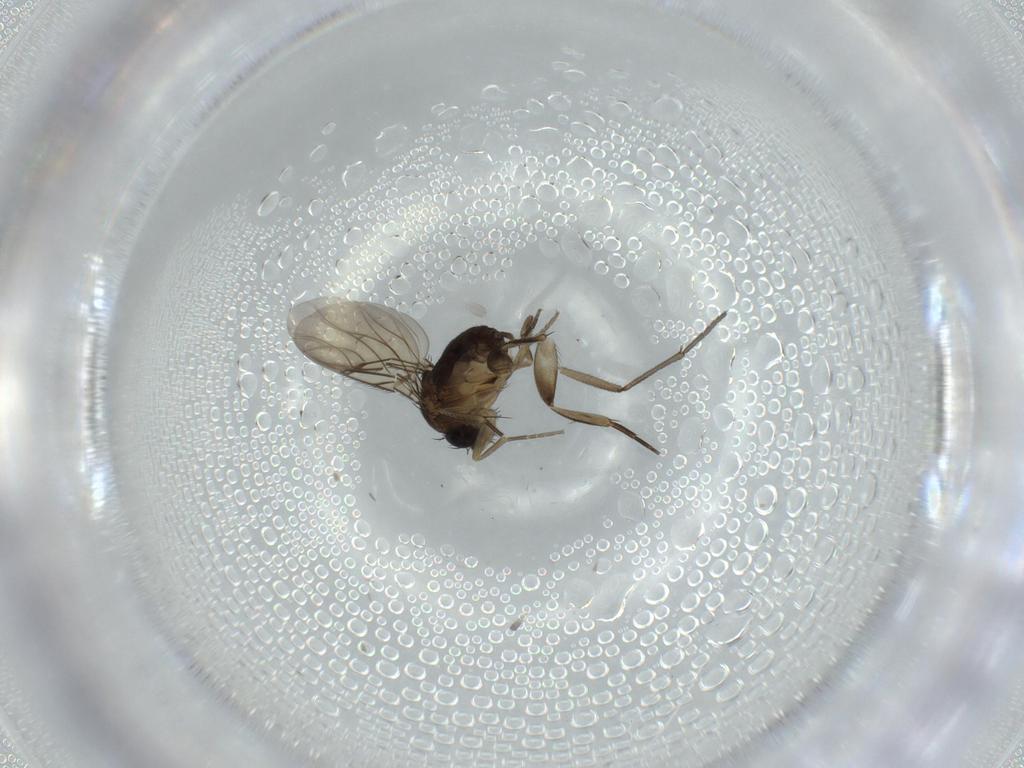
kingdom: Animalia
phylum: Arthropoda
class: Insecta
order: Diptera
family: Sciaridae
